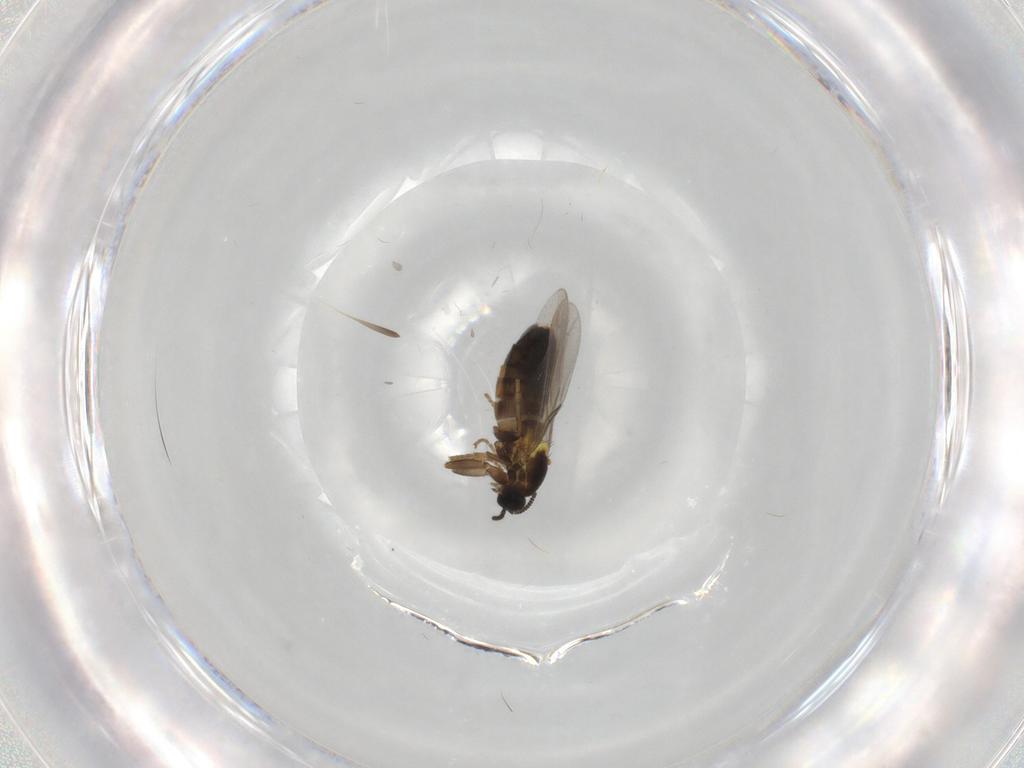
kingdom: Animalia
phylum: Arthropoda
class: Insecta
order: Diptera
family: Scatopsidae
